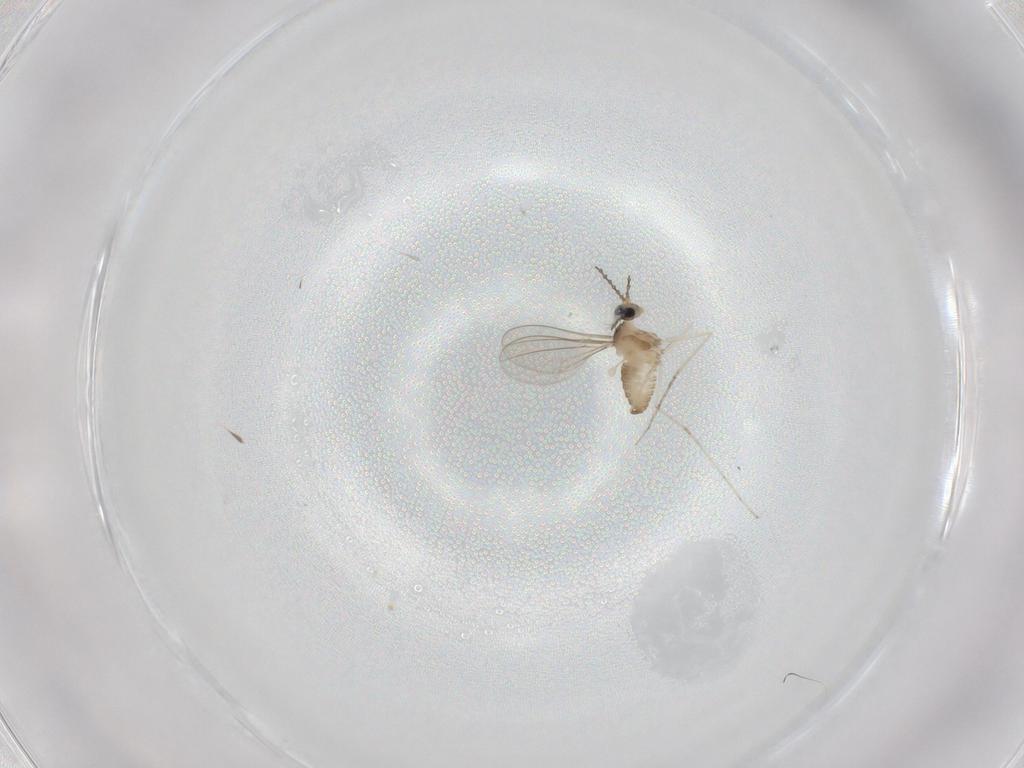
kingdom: Animalia
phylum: Arthropoda
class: Insecta
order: Diptera
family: Cecidomyiidae
